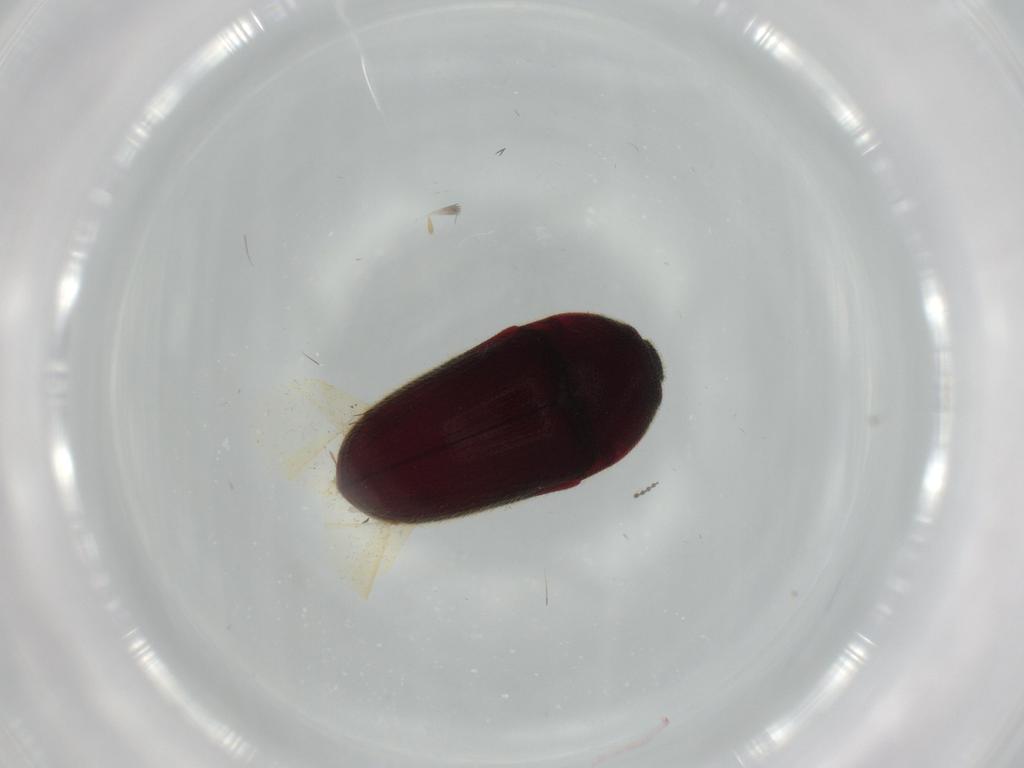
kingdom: Animalia
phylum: Arthropoda
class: Insecta
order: Coleoptera
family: Throscidae
